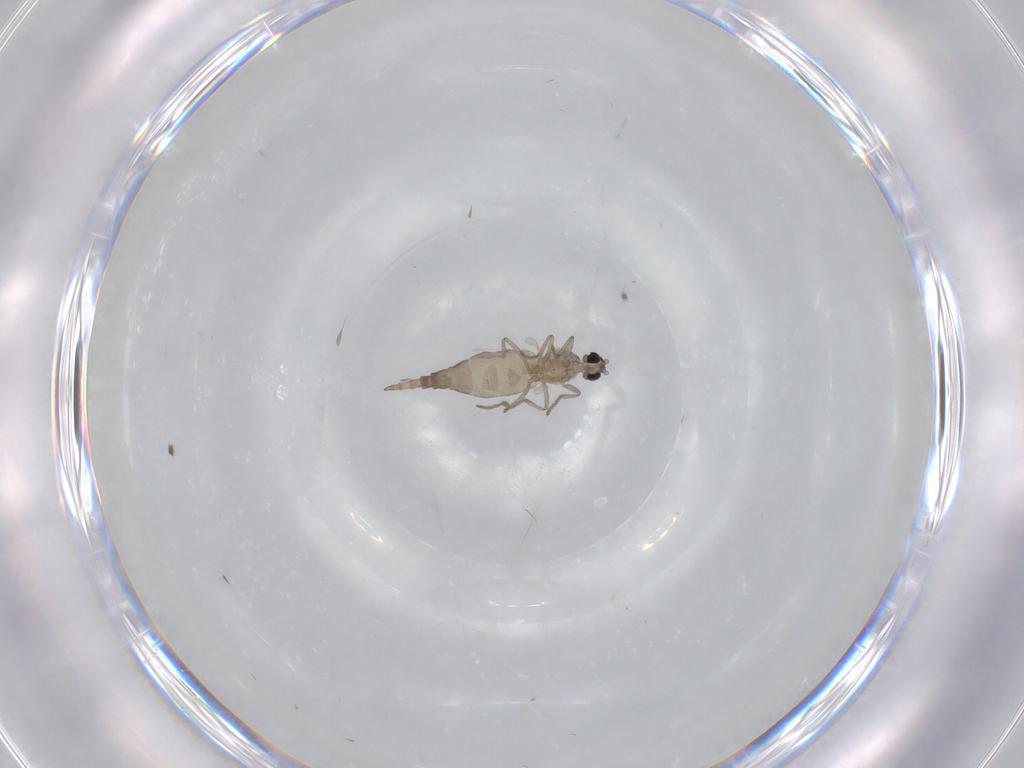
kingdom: Animalia
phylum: Arthropoda
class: Insecta
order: Diptera
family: Cecidomyiidae
